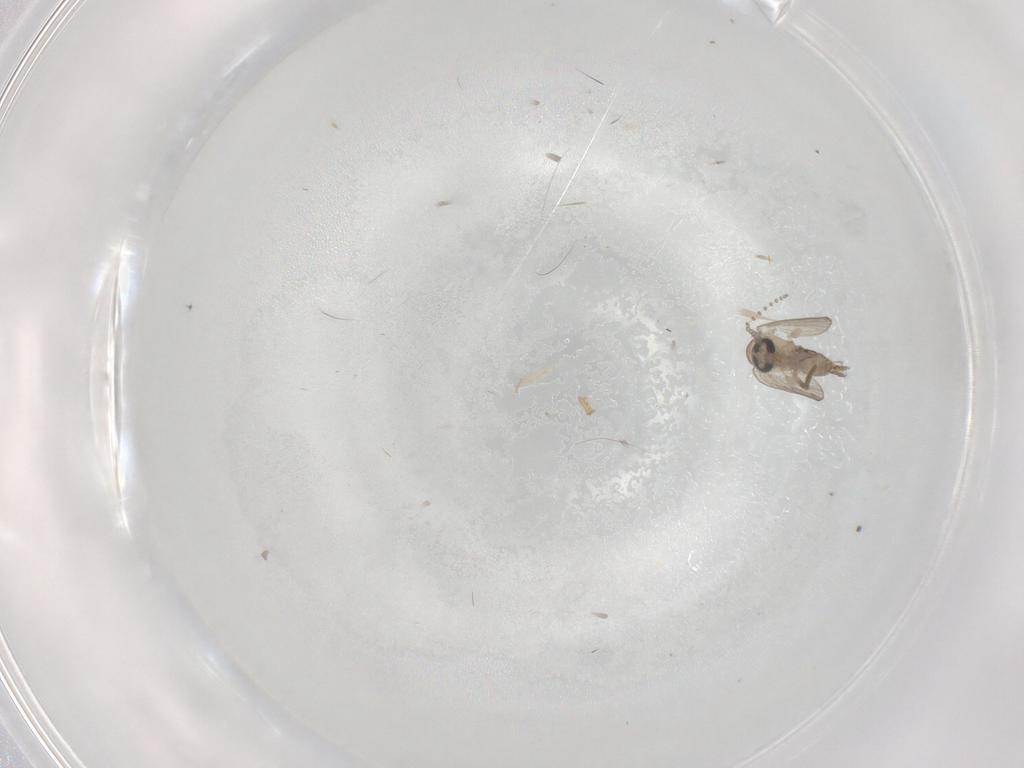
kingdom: Animalia
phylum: Arthropoda
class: Insecta
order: Diptera
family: Psychodidae
